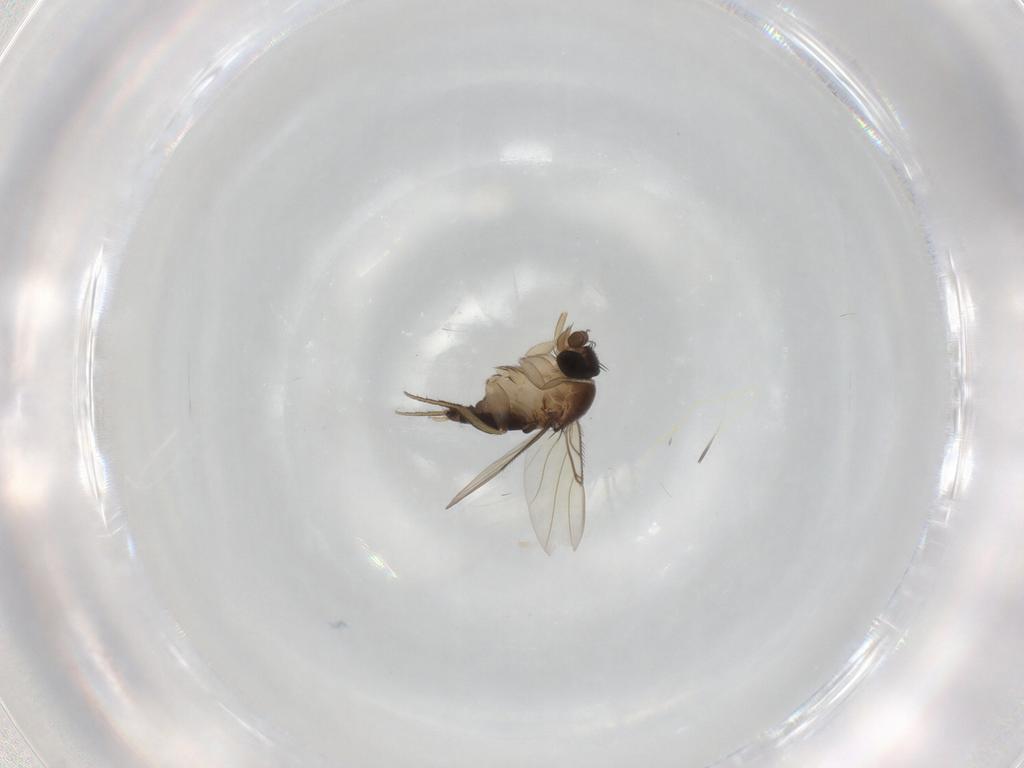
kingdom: Animalia
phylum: Arthropoda
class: Insecta
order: Diptera
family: Phoridae
